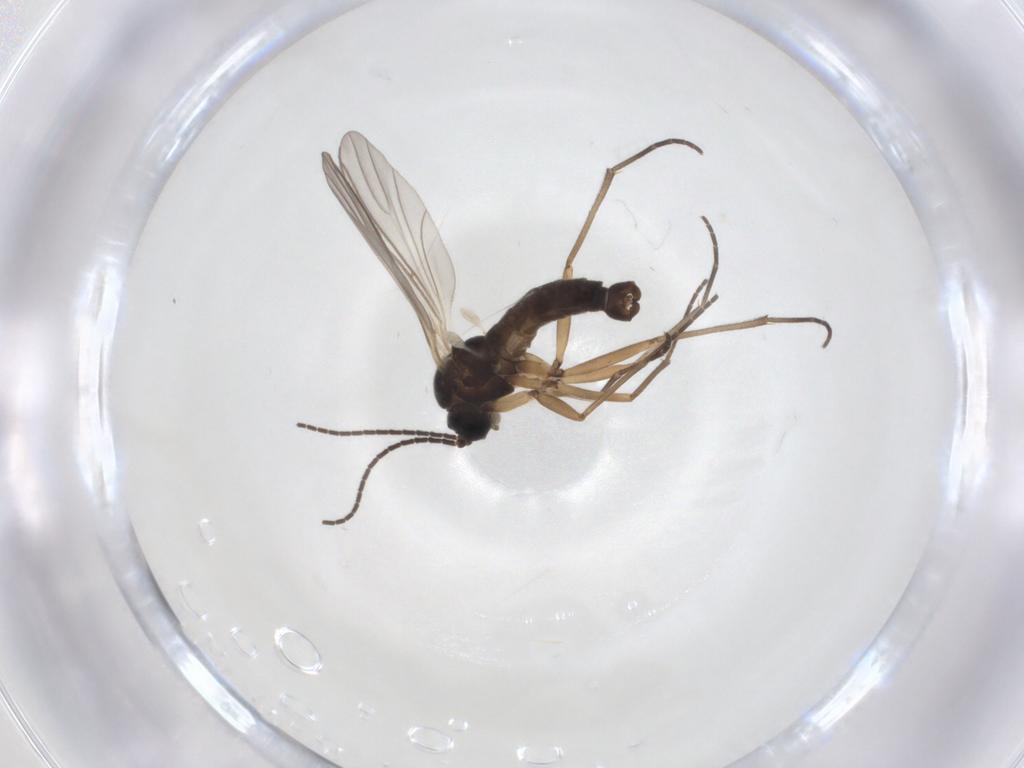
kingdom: Animalia
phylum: Arthropoda
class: Insecta
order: Diptera
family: Sciaridae
